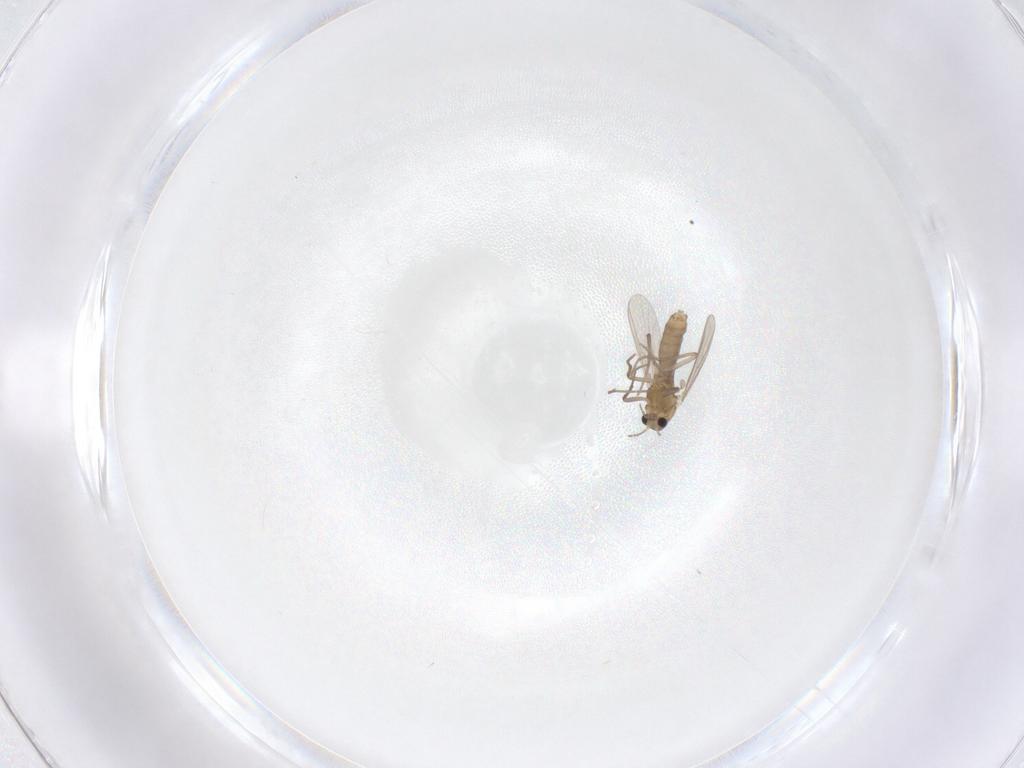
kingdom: Animalia
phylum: Arthropoda
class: Insecta
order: Diptera
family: Chironomidae
